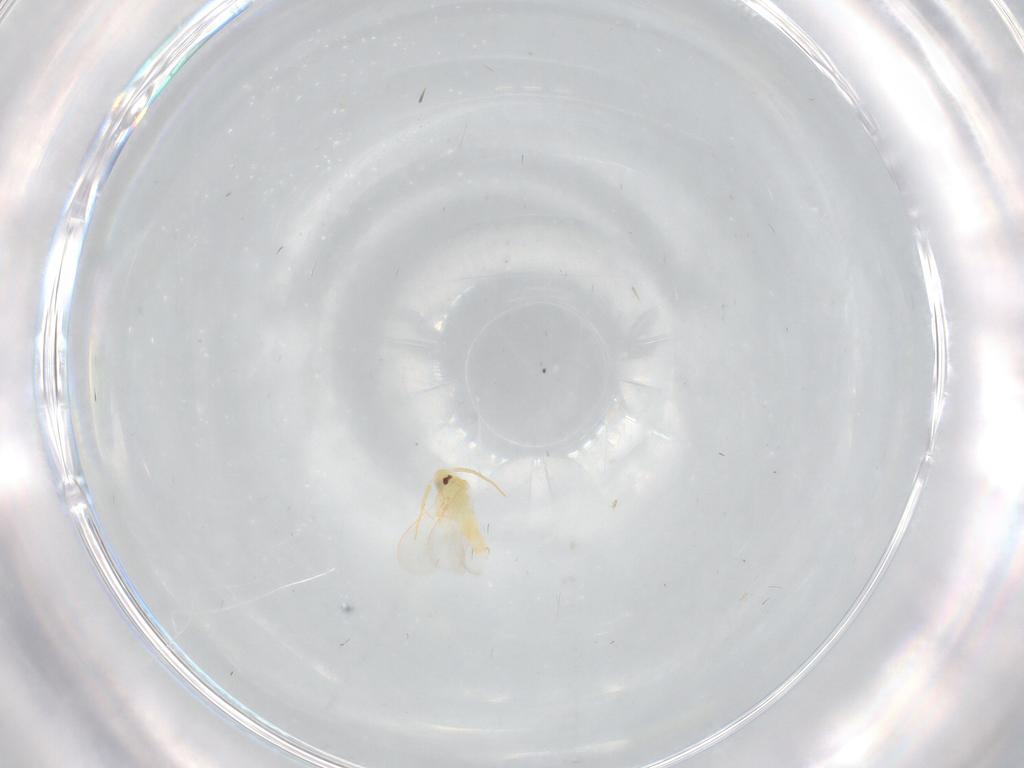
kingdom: Animalia
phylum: Arthropoda
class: Insecta
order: Hemiptera
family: Aleyrodidae
